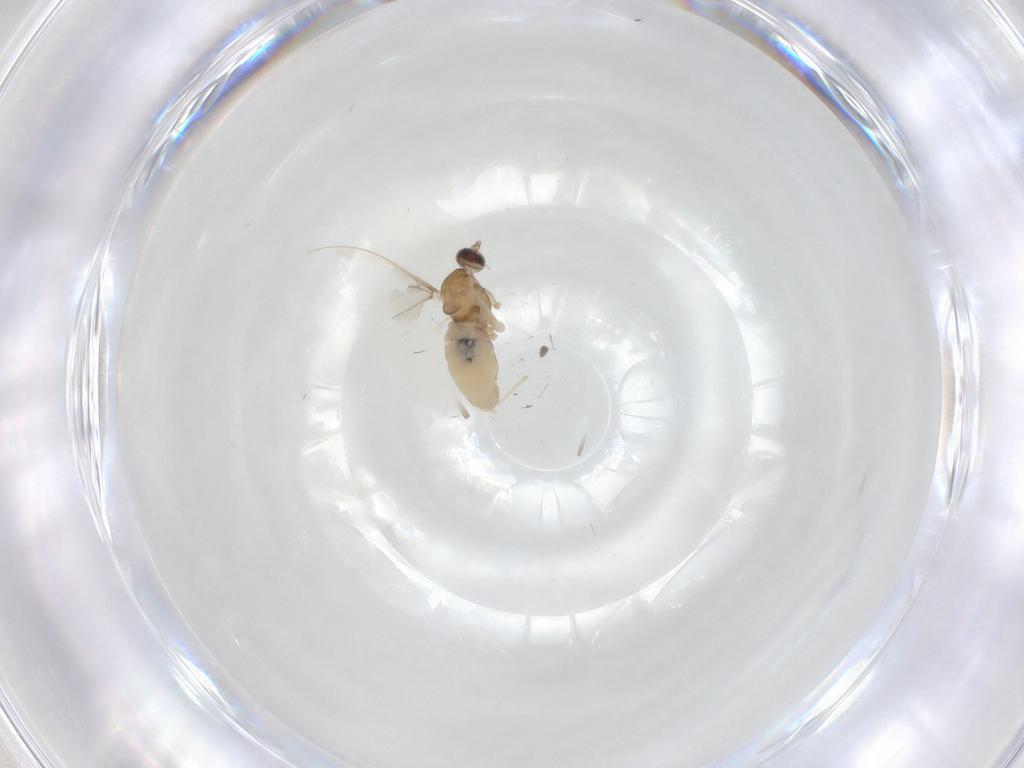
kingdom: Animalia
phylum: Arthropoda
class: Insecta
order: Diptera
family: Cecidomyiidae
